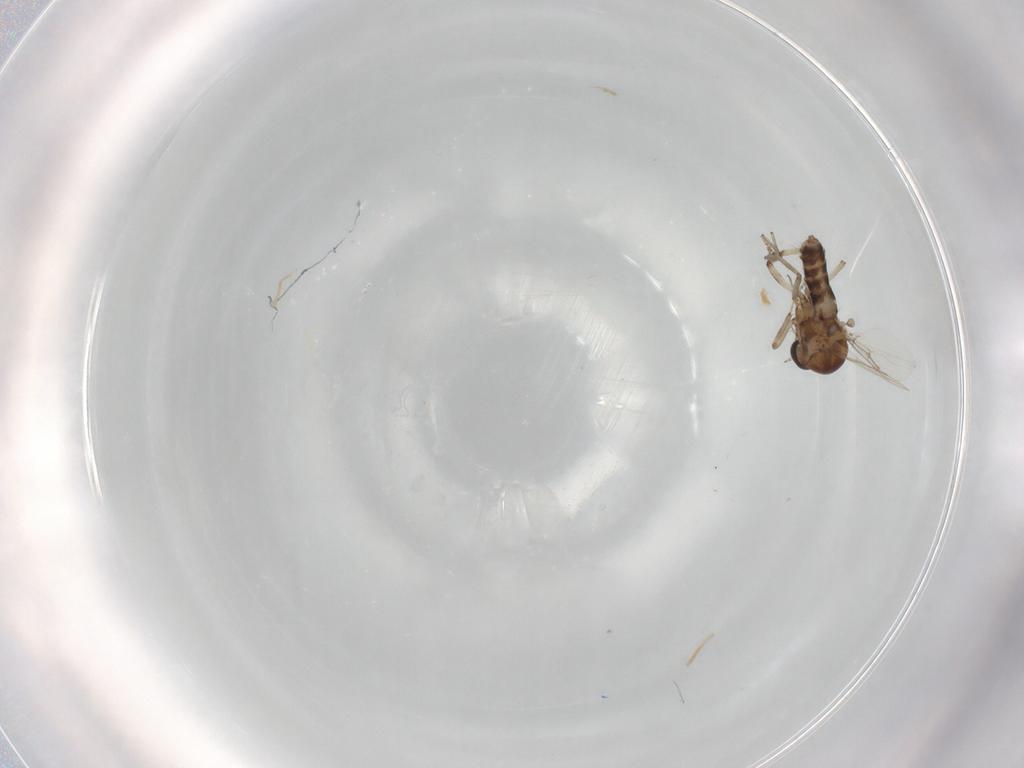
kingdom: Animalia
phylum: Arthropoda
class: Insecta
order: Diptera
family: Ceratopogonidae
